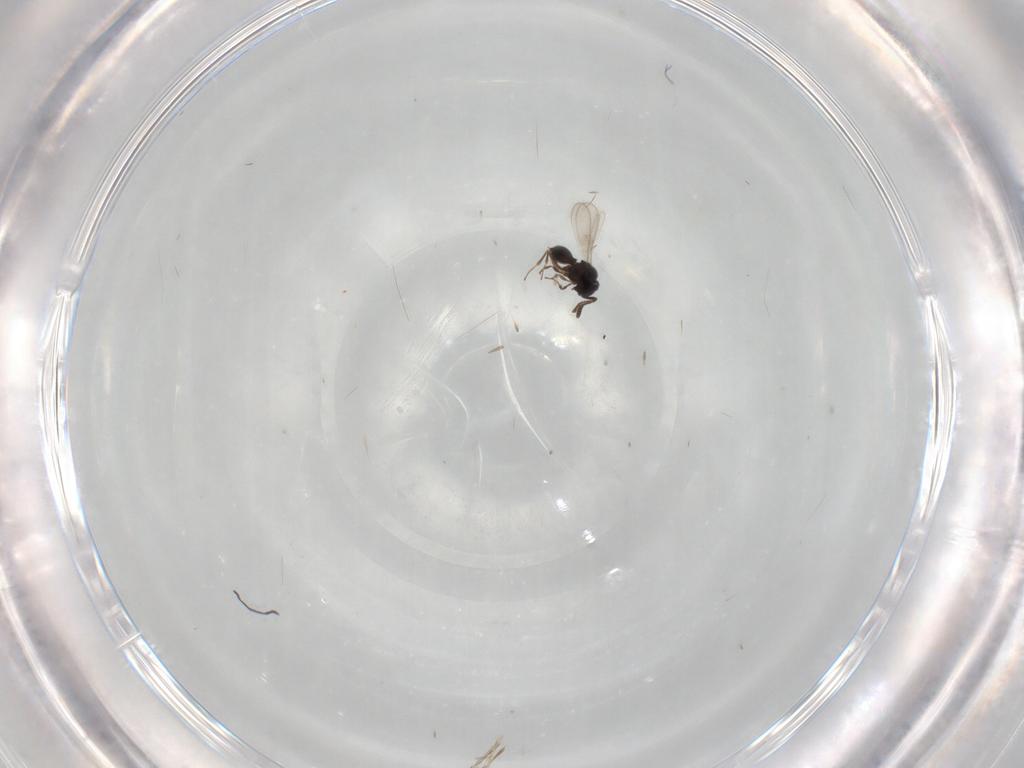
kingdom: Animalia
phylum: Arthropoda
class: Insecta
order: Hymenoptera
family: Scelionidae
